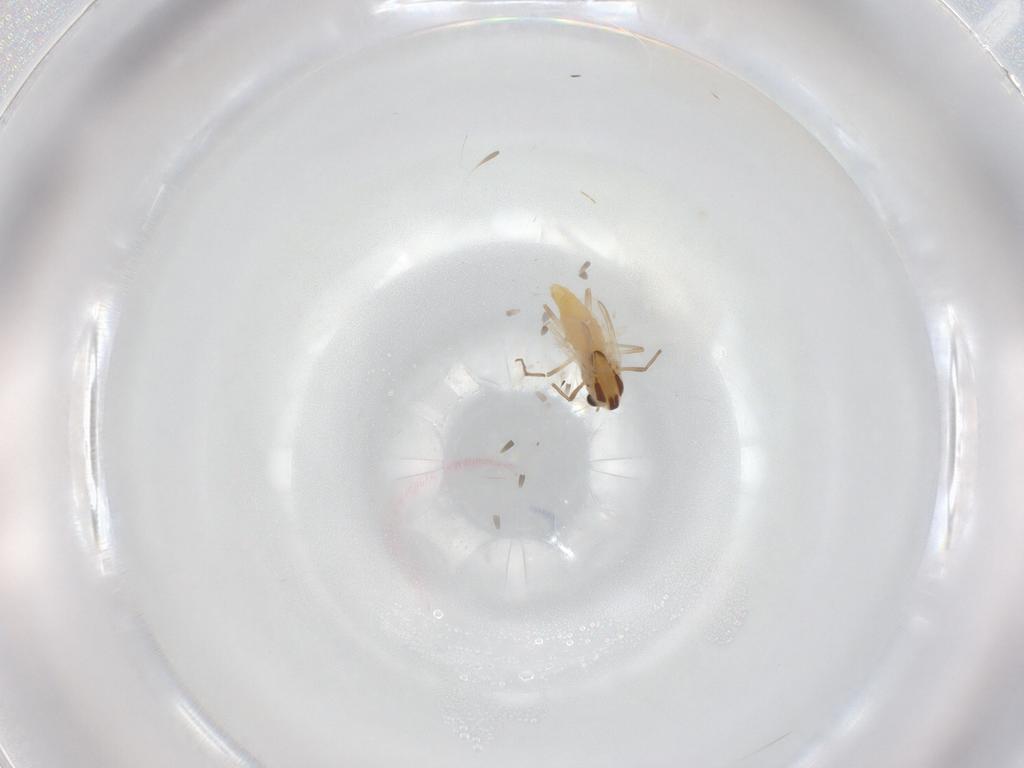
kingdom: Animalia
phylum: Arthropoda
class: Insecta
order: Diptera
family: Chironomidae
